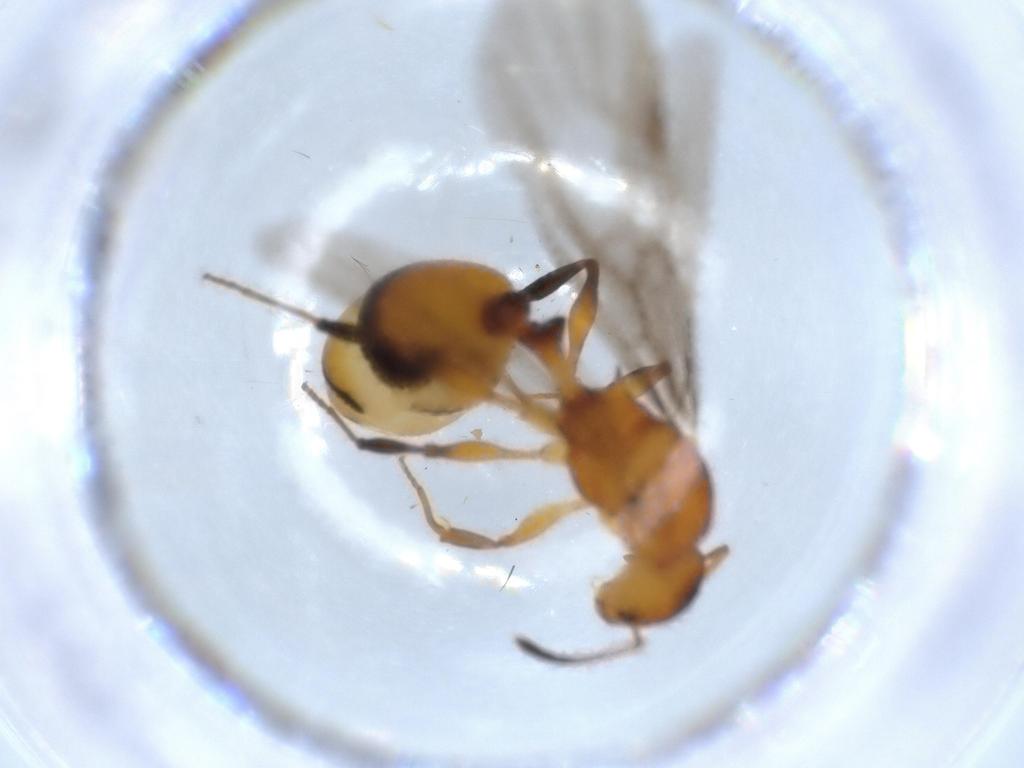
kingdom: Animalia
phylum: Arthropoda
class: Insecta
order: Hymenoptera
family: Formicidae
